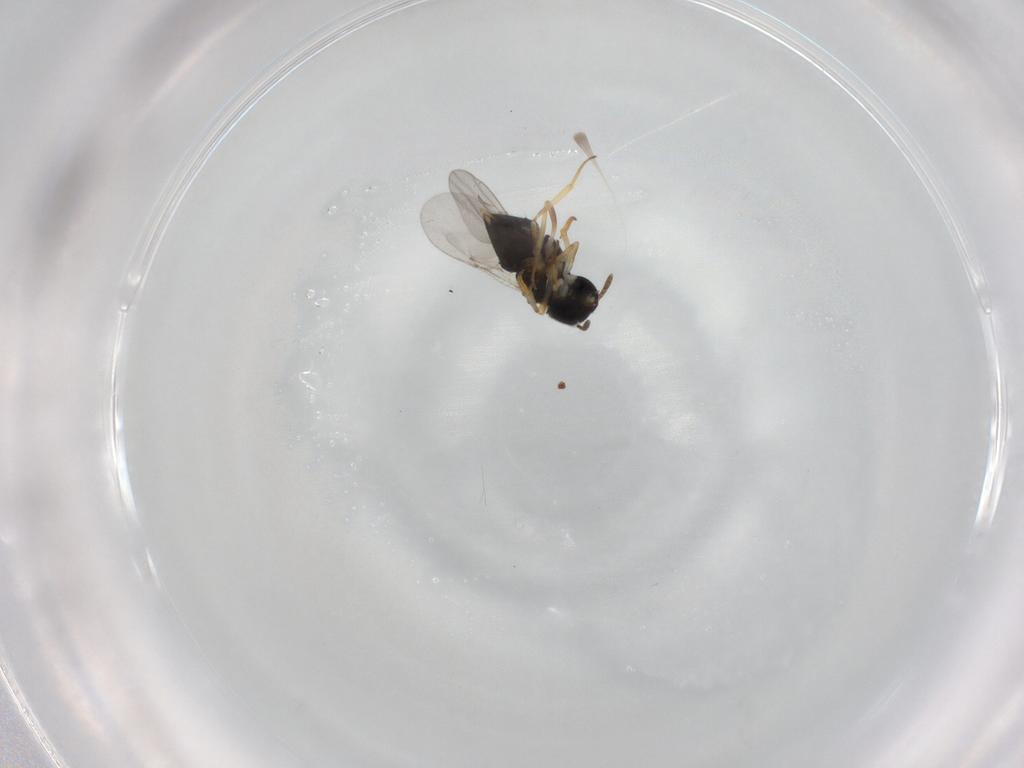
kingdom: Animalia
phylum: Arthropoda
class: Insecta
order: Hymenoptera
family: Encyrtidae
